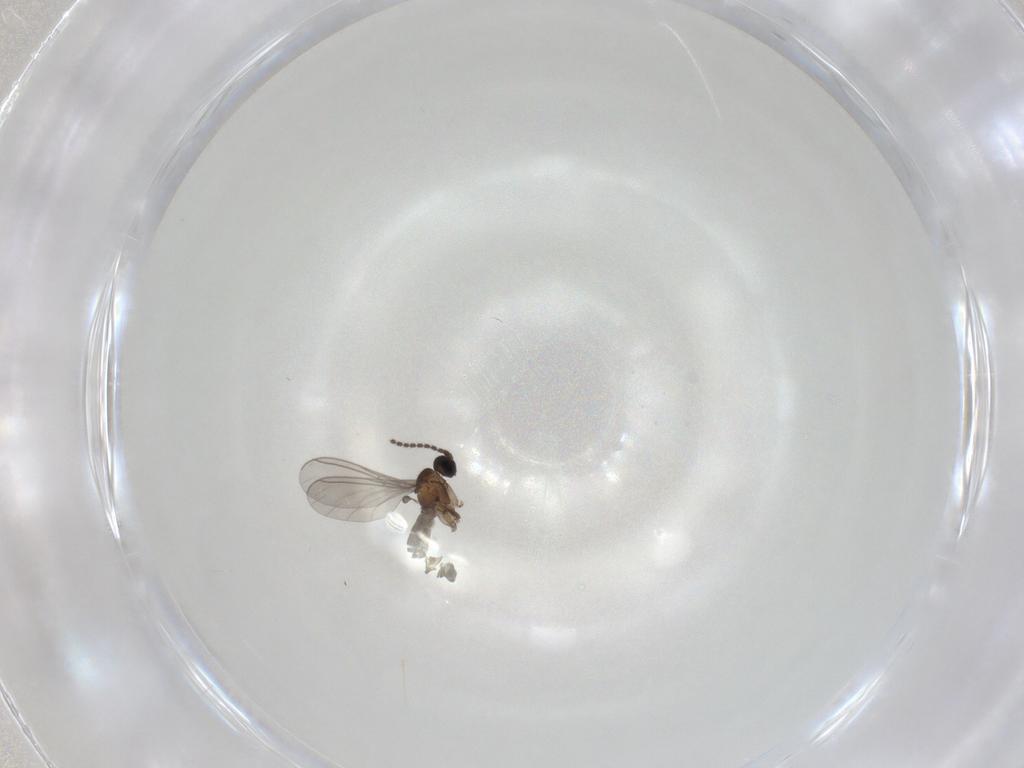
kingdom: Animalia
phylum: Arthropoda
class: Insecta
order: Diptera
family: Sciaridae
